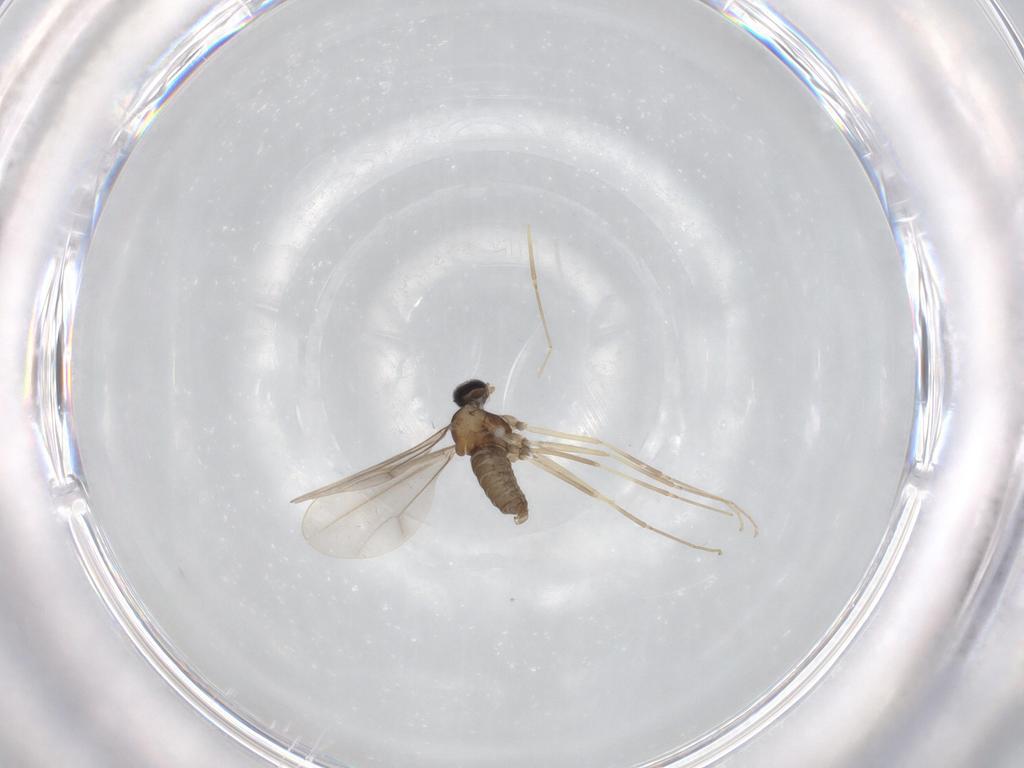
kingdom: Animalia
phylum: Arthropoda
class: Insecta
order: Diptera
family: Cecidomyiidae
